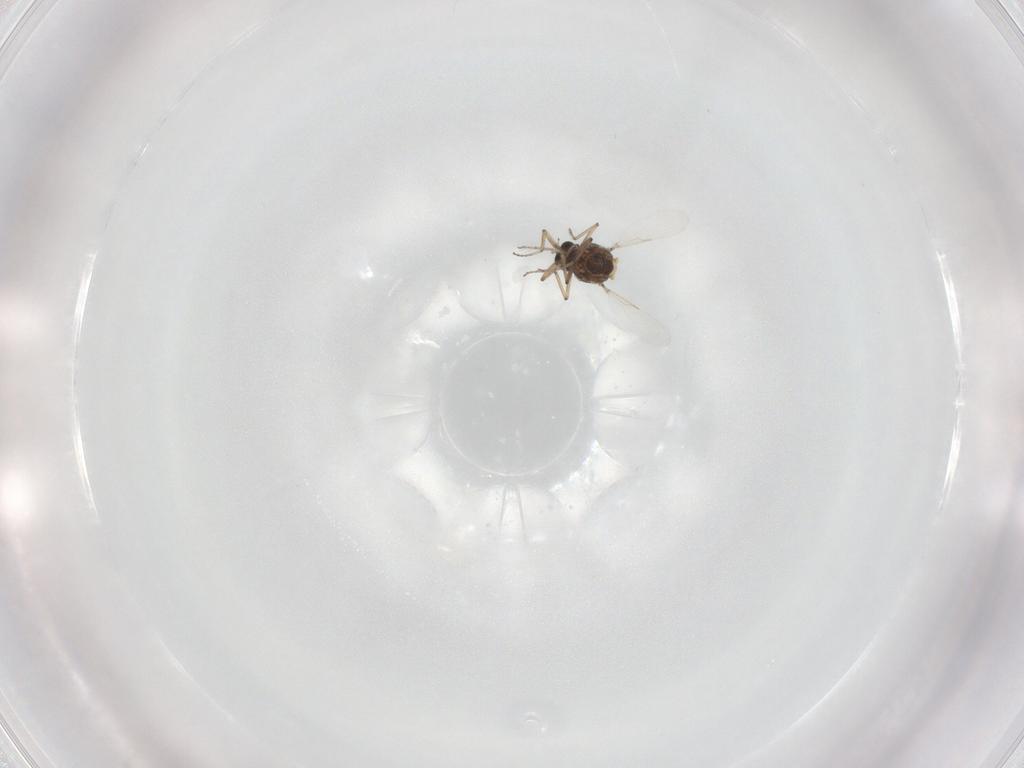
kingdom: Animalia
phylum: Arthropoda
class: Insecta
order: Diptera
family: Ceratopogonidae
